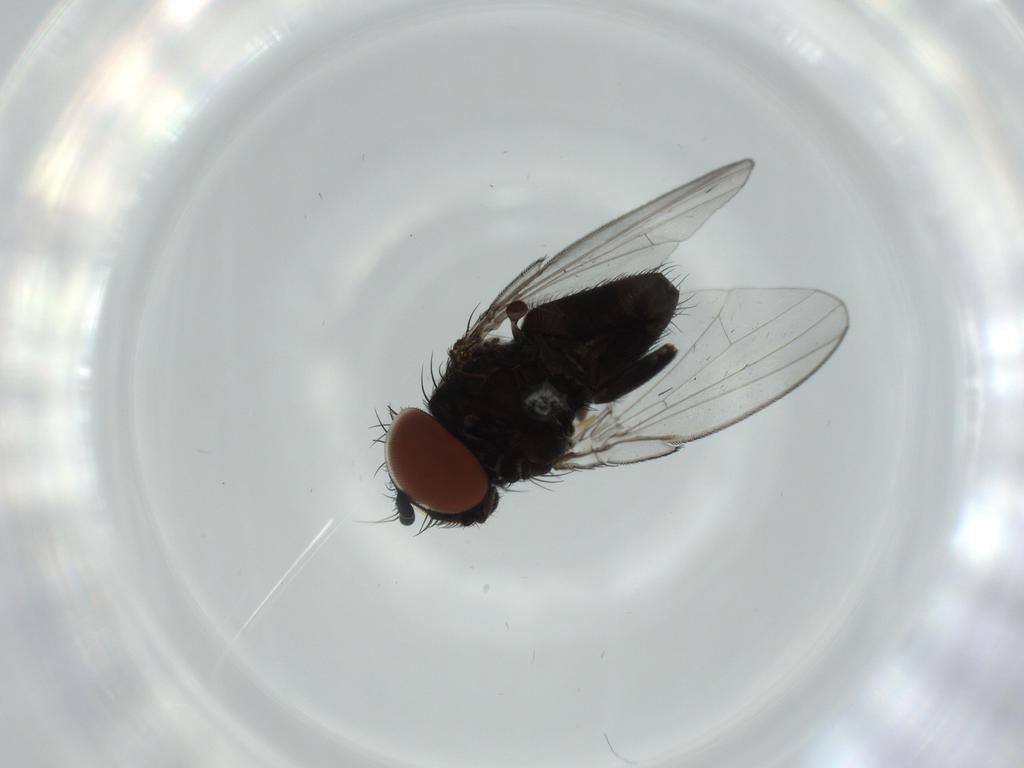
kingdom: Animalia
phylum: Arthropoda
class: Insecta
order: Diptera
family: Milichiidae
